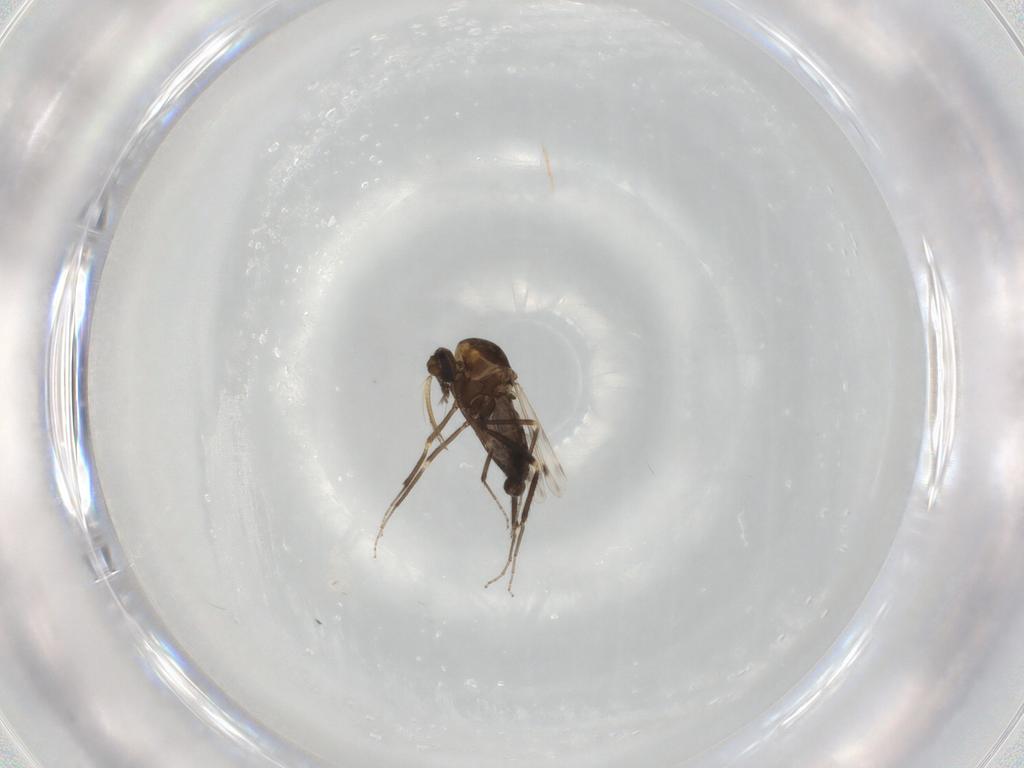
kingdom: Animalia
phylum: Arthropoda
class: Insecta
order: Diptera
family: Ceratopogonidae
